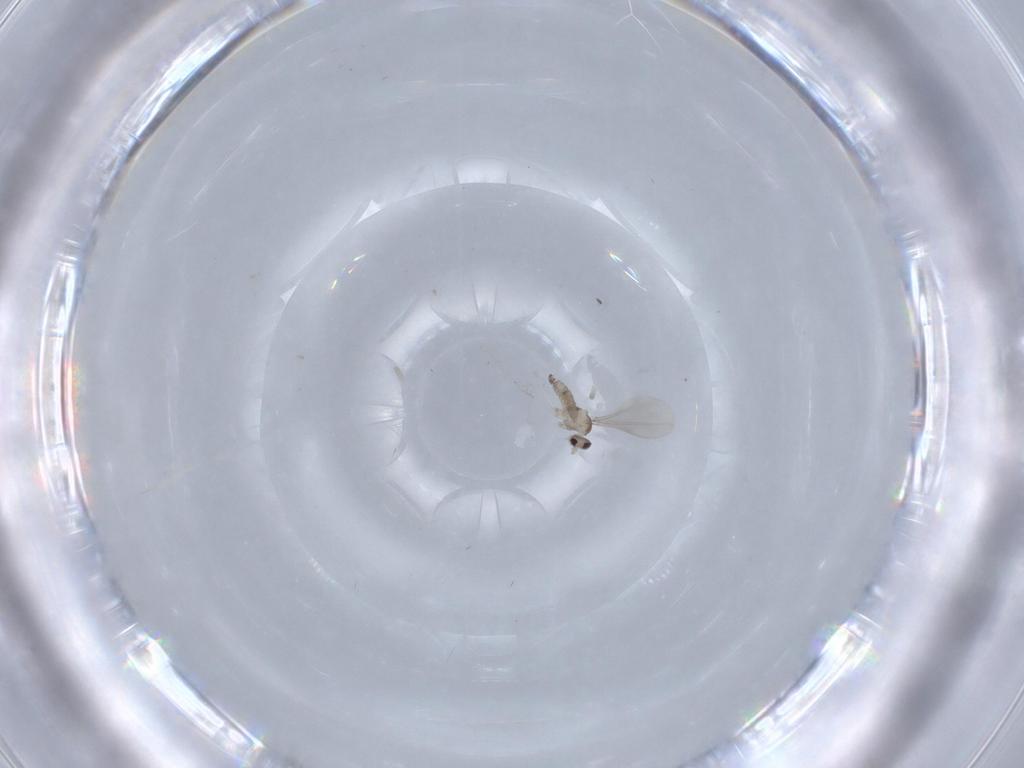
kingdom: Animalia
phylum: Arthropoda
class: Insecta
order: Diptera
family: Cecidomyiidae
